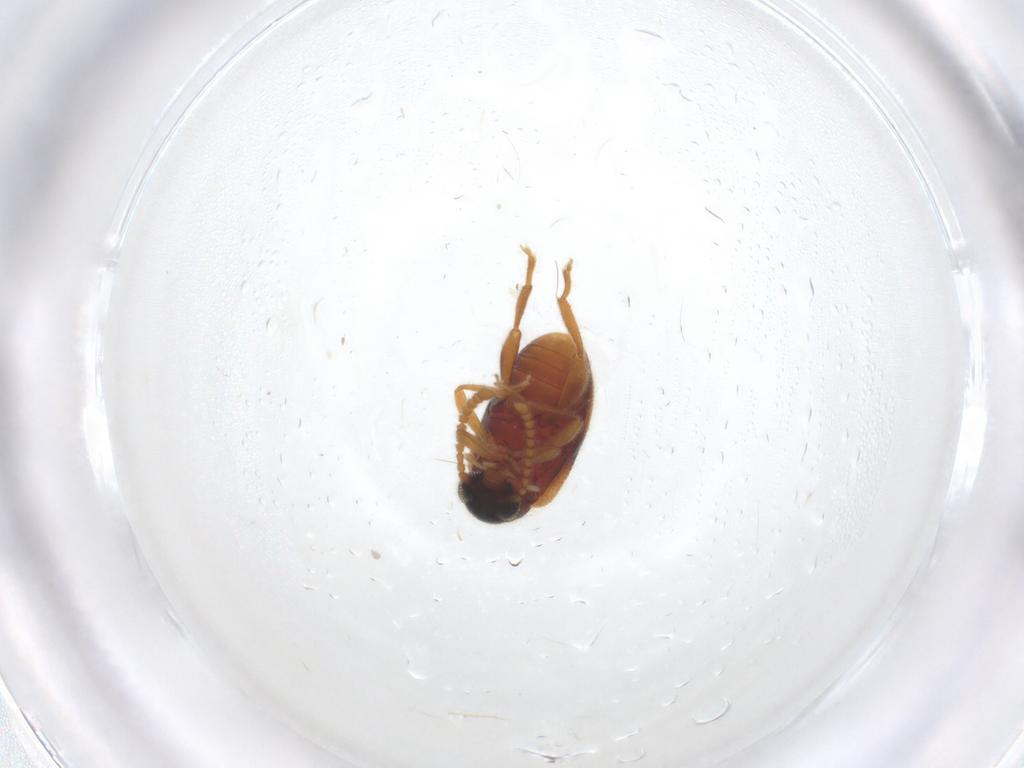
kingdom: Animalia
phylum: Arthropoda
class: Insecta
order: Coleoptera
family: Aderidae
